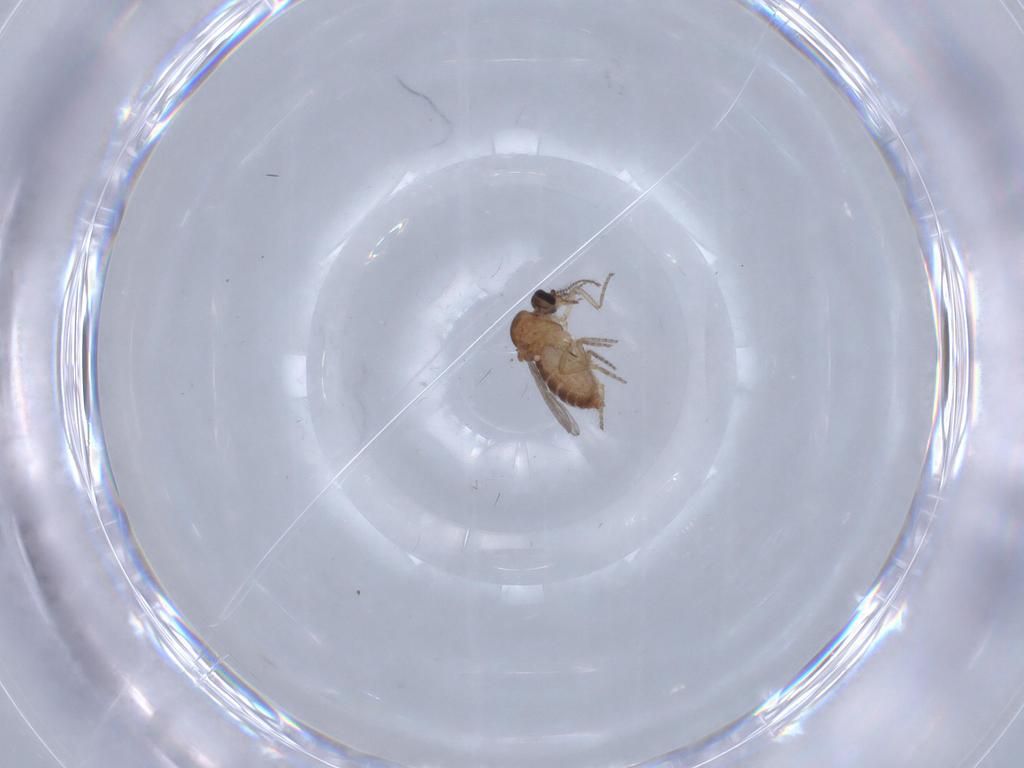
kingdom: Animalia
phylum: Arthropoda
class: Insecta
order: Diptera
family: Ceratopogonidae
